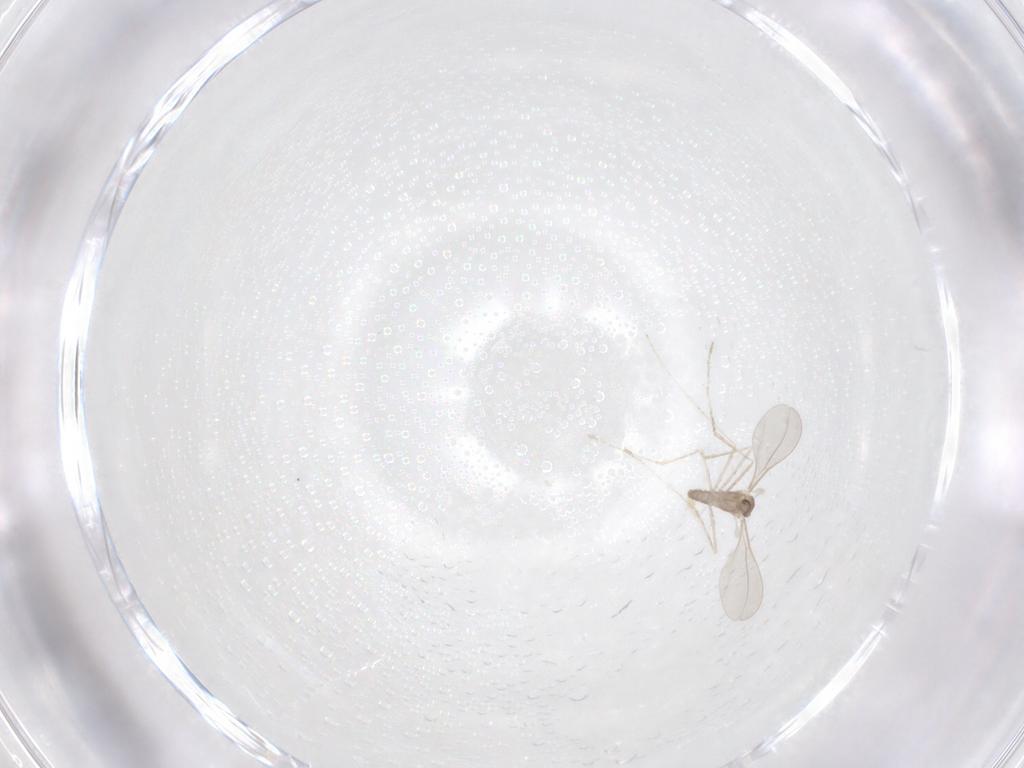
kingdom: Animalia
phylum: Arthropoda
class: Insecta
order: Diptera
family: Cecidomyiidae
